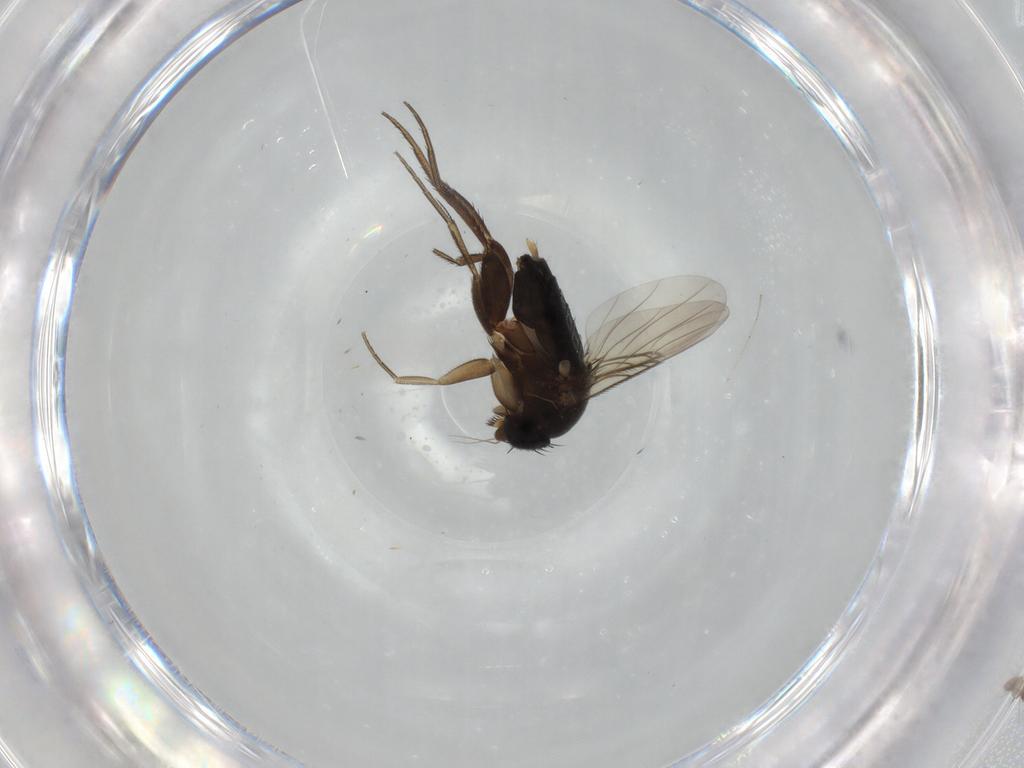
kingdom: Animalia
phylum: Arthropoda
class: Insecta
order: Diptera
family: Phoridae
